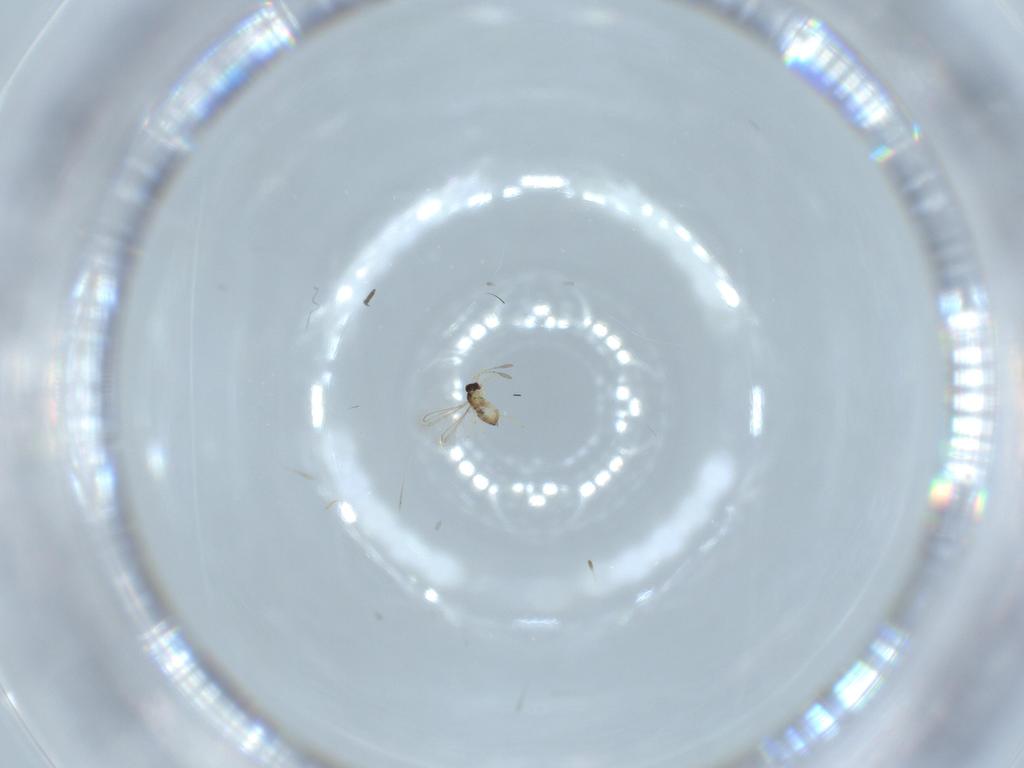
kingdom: Animalia
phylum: Arthropoda
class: Insecta
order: Hymenoptera
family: Mymaridae
